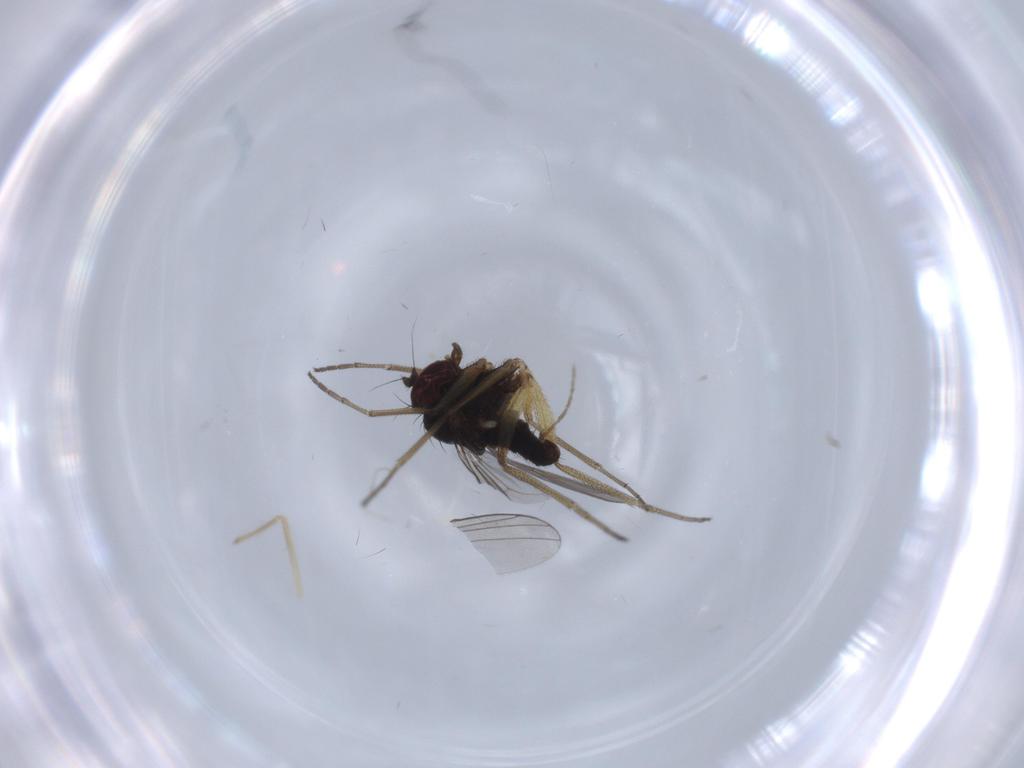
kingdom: Animalia
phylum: Arthropoda
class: Insecta
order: Diptera
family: Dolichopodidae
